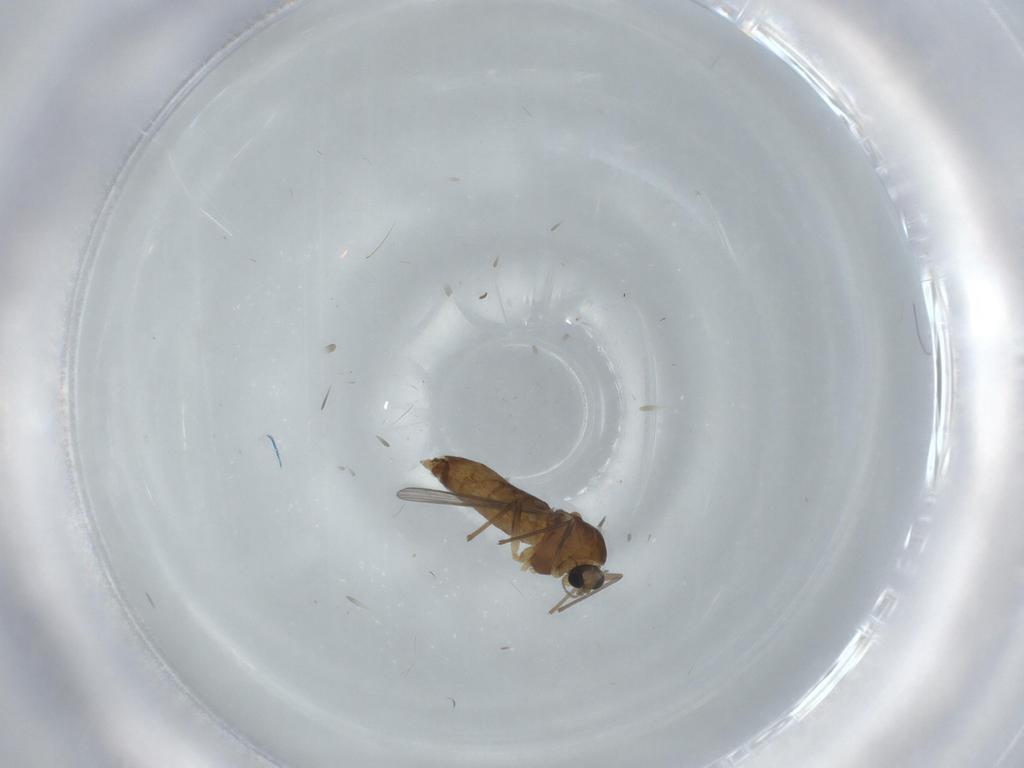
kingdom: Animalia
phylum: Arthropoda
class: Insecta
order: Diptera
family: Chironomidae
